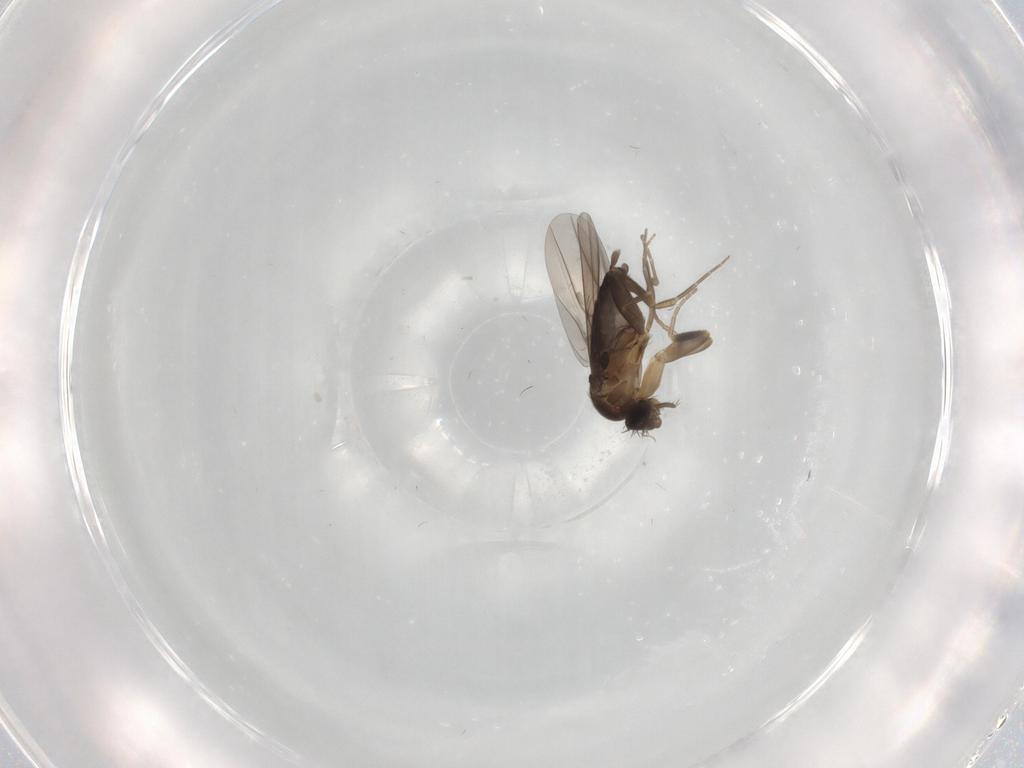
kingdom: Animalia
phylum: Arthropoda
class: Insecta
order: Diptera
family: Phoridae
